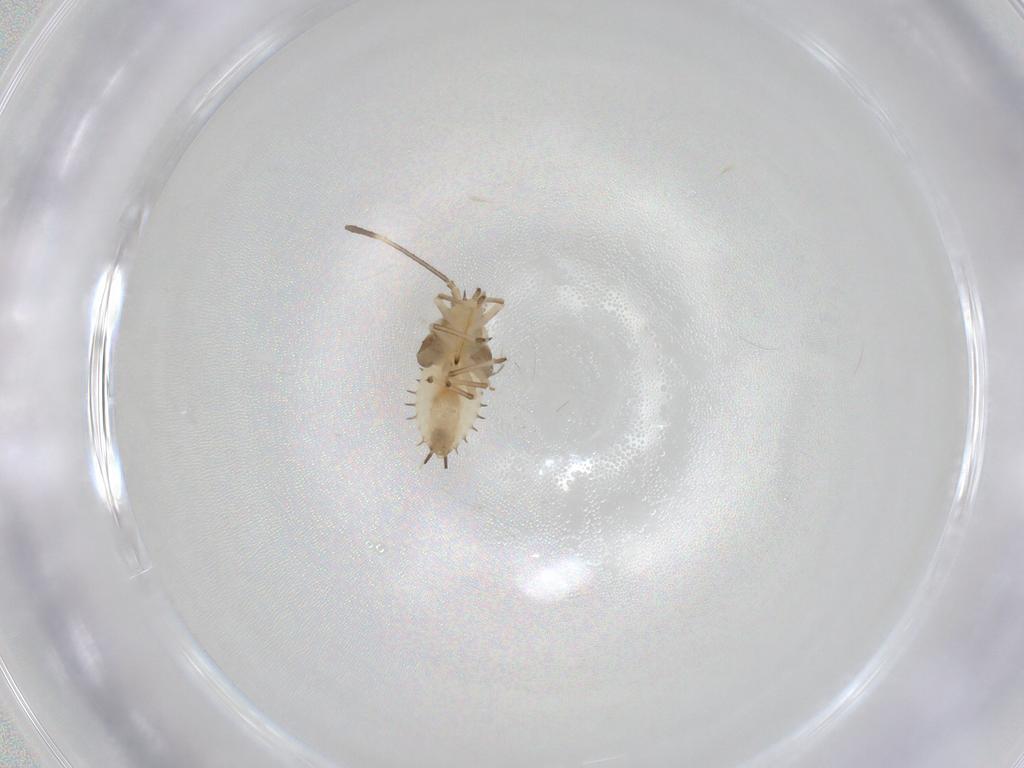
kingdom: Animalia
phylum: Arthropoda
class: Insecta
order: Hemiptera
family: Tingidae
